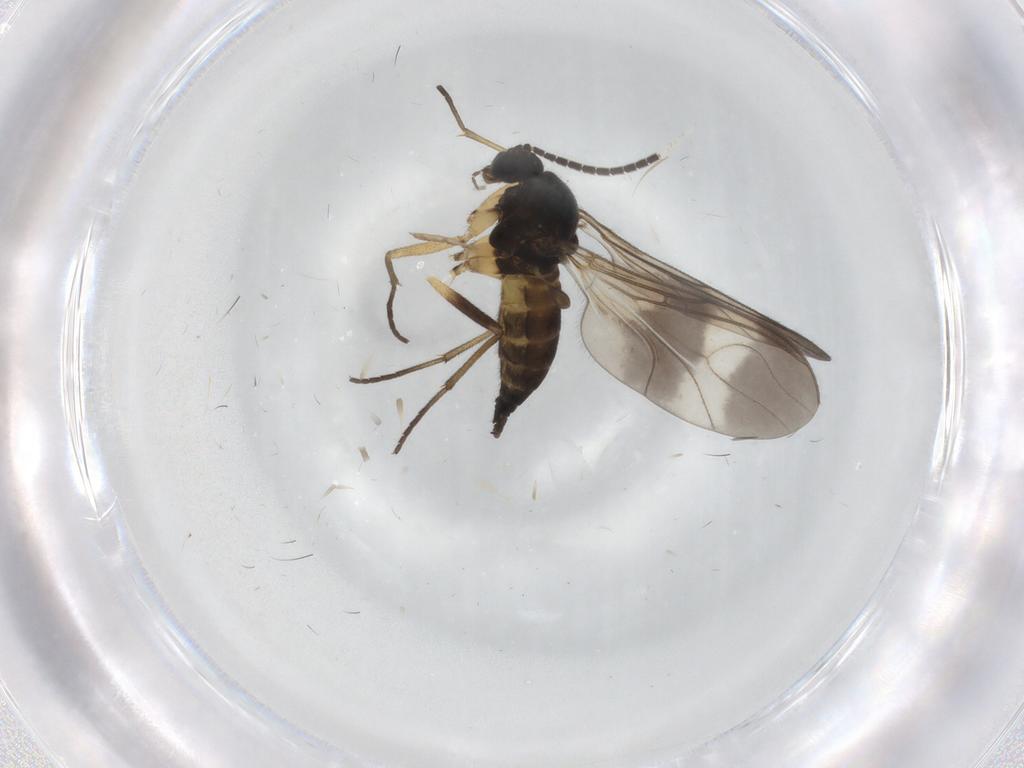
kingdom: Animalia
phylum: Arthropoda
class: Insecta
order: Diptera
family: Sciaridae
